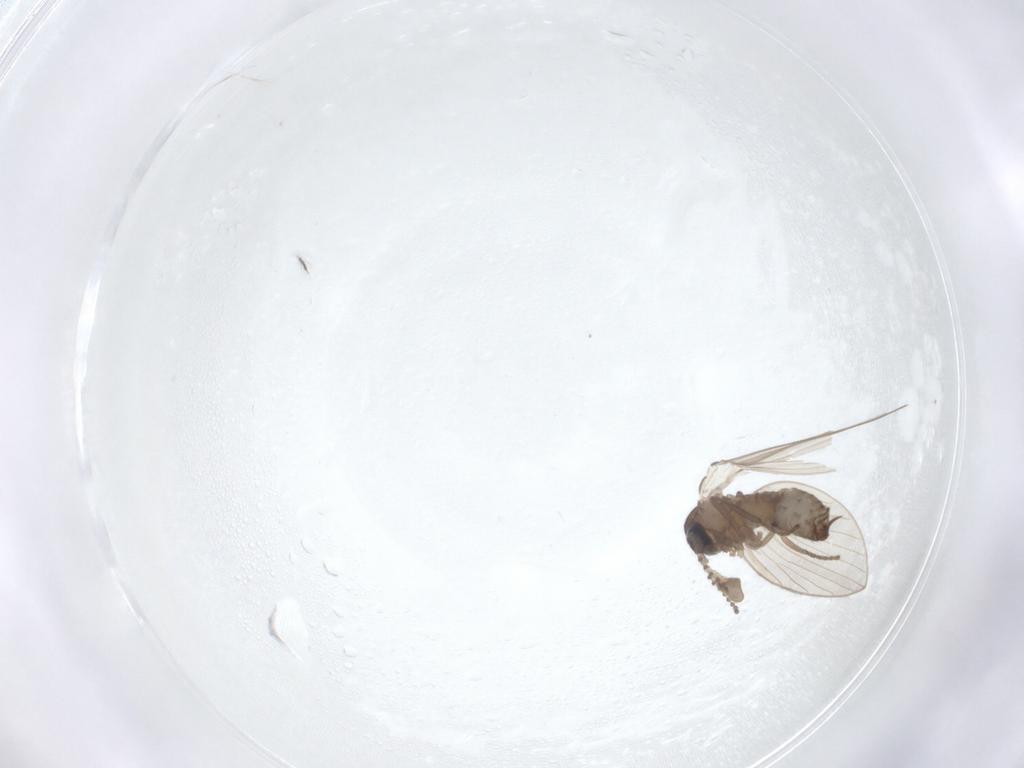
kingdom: Animalia
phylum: Arthropoda
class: Insecta
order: Diptera
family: Psychodidae
